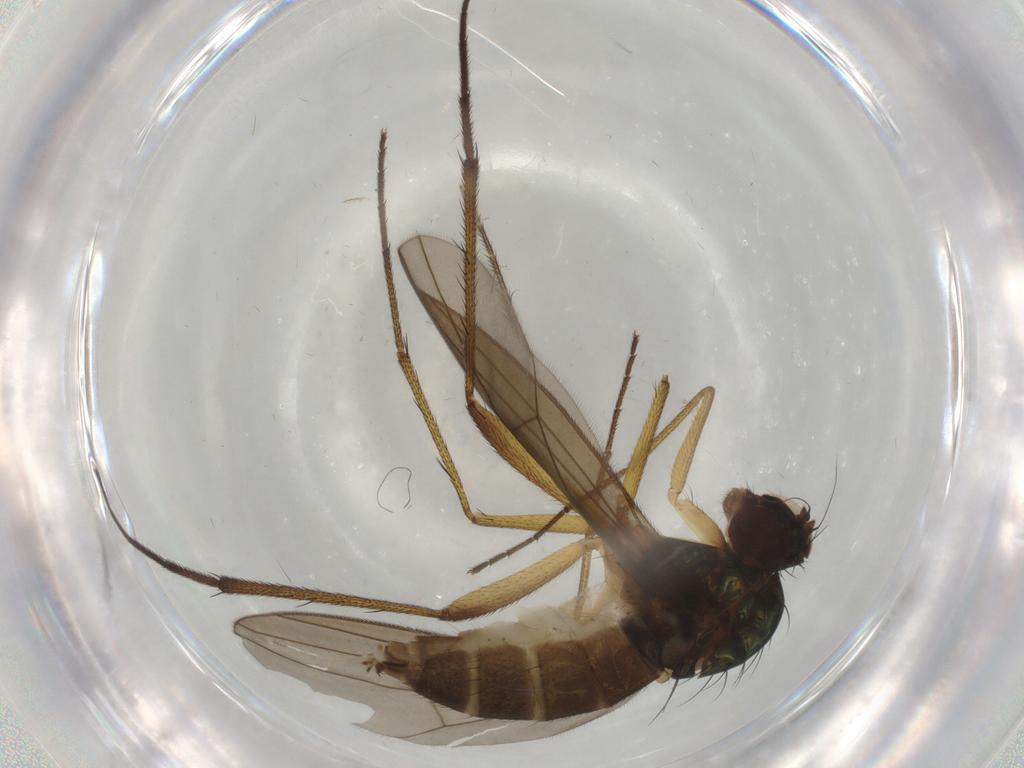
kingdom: Animalia
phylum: Arthropoda
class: Insecta
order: Diptera
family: Dolichopodidae
